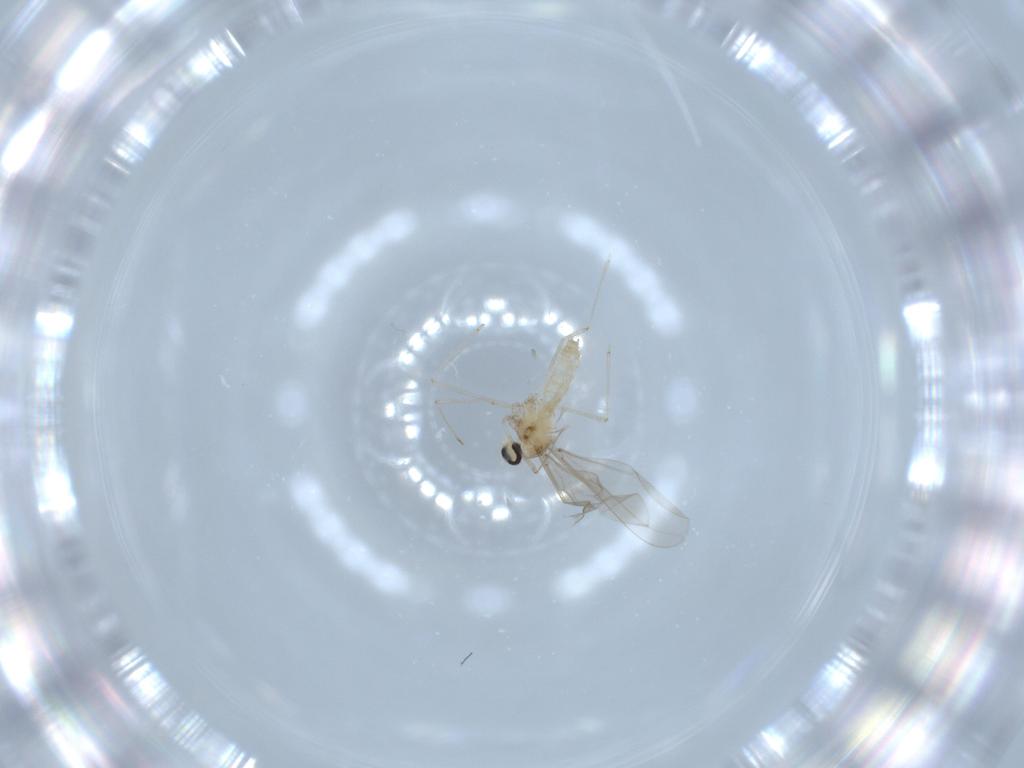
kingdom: Animalia
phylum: Arthropoda
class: Insecta
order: Diptera
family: Cecidomyiidae
